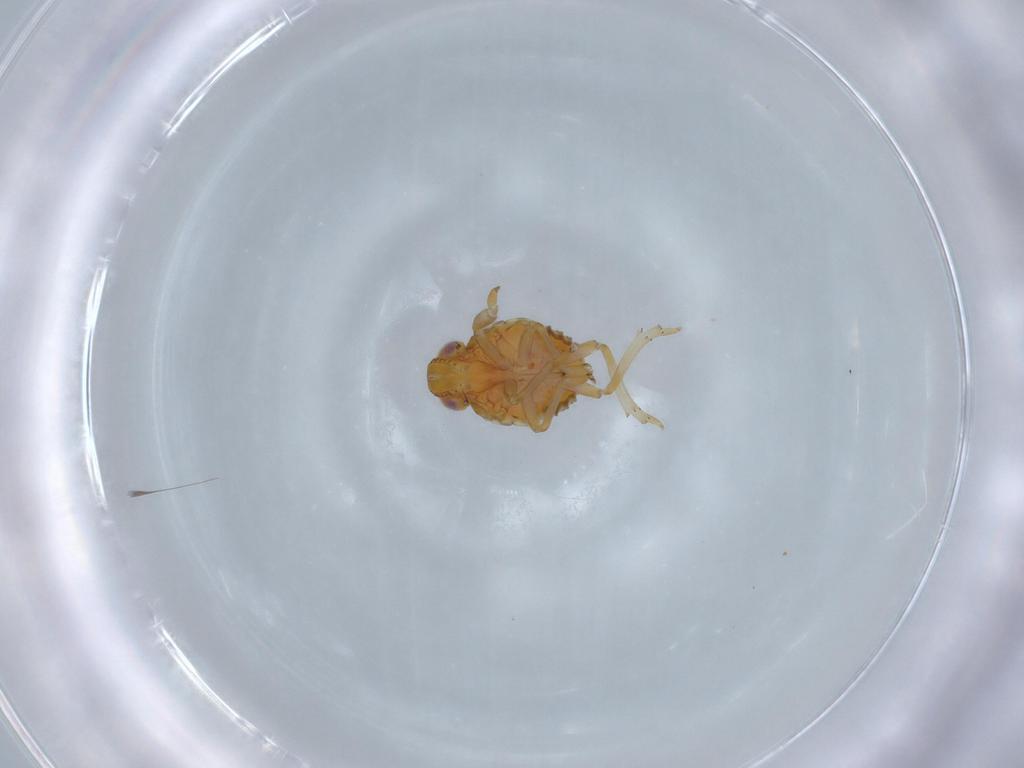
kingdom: Animalia
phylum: Arthropoda
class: Insecta
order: Hemiptera
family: Issidae
